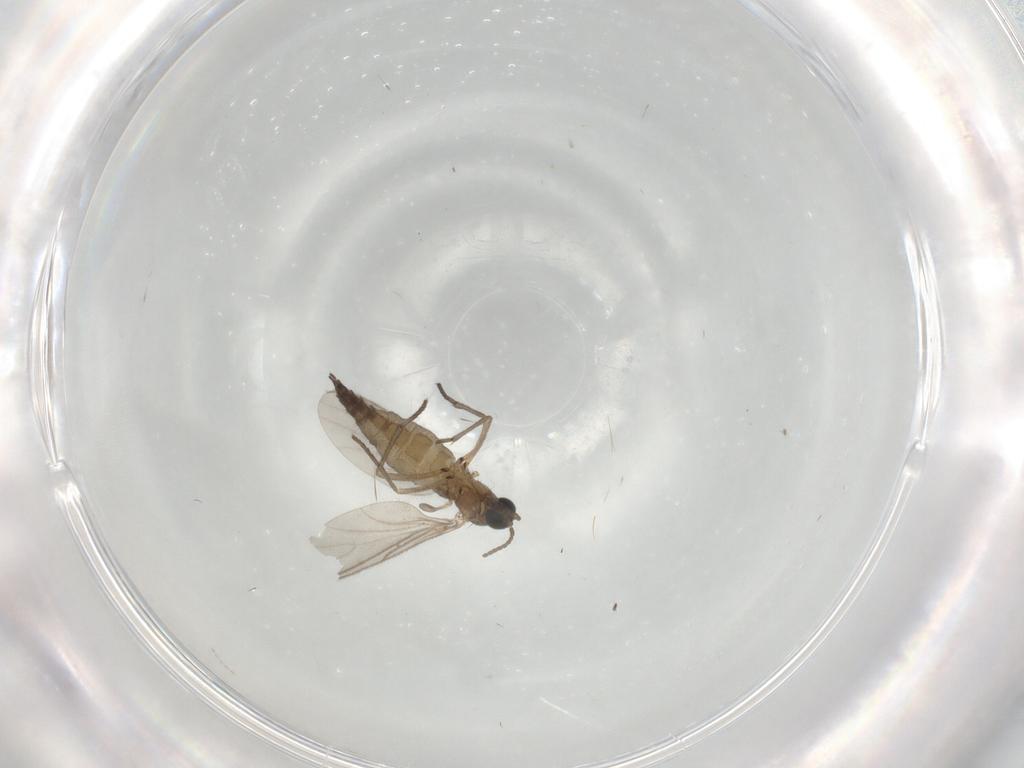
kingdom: Animalia
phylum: Arthropoda
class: Insecta
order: Diptera
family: Sciaridae
